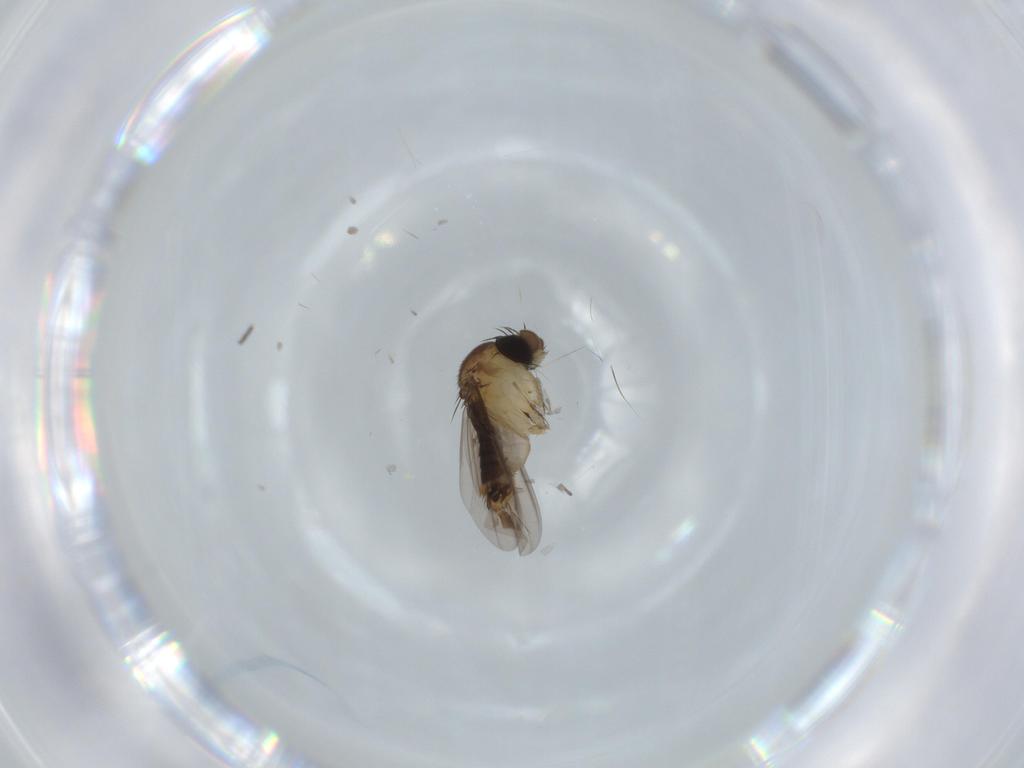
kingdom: Animalia
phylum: Arthropoda
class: Insecta
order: Diptera
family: Phoridae
